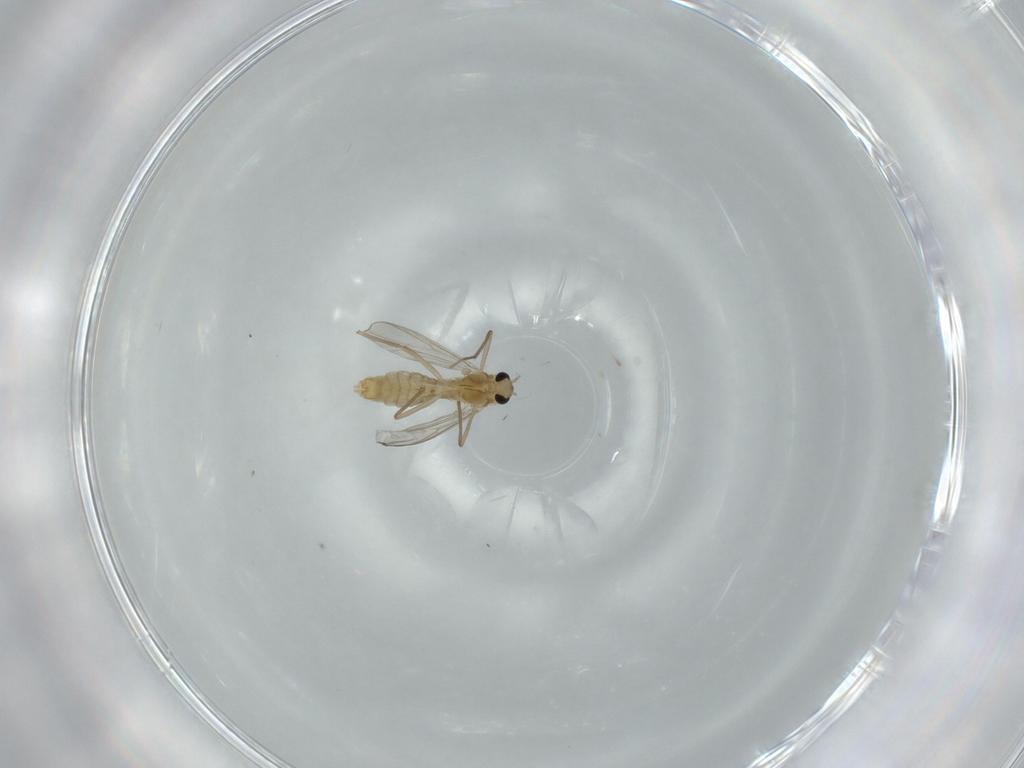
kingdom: Animalia
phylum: Arthropoda
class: Insecta
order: Diptera
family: Chironomidae
